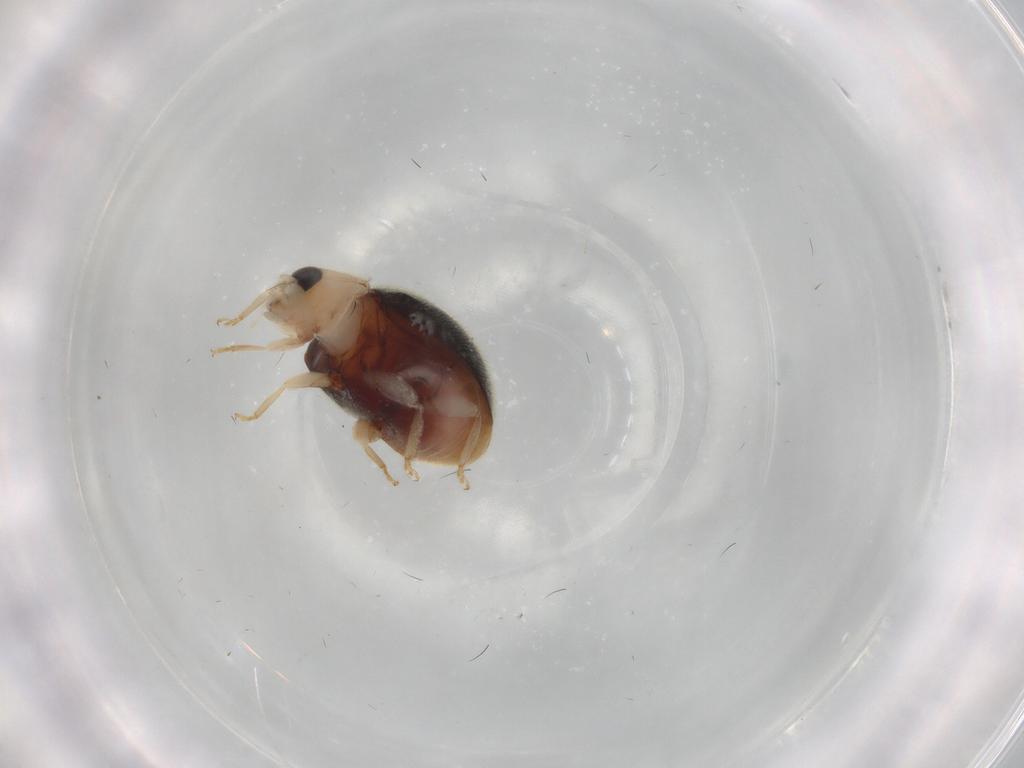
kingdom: Animalia
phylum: Arthropoda
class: Insecta
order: Coleoptera
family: Coccinellidae
